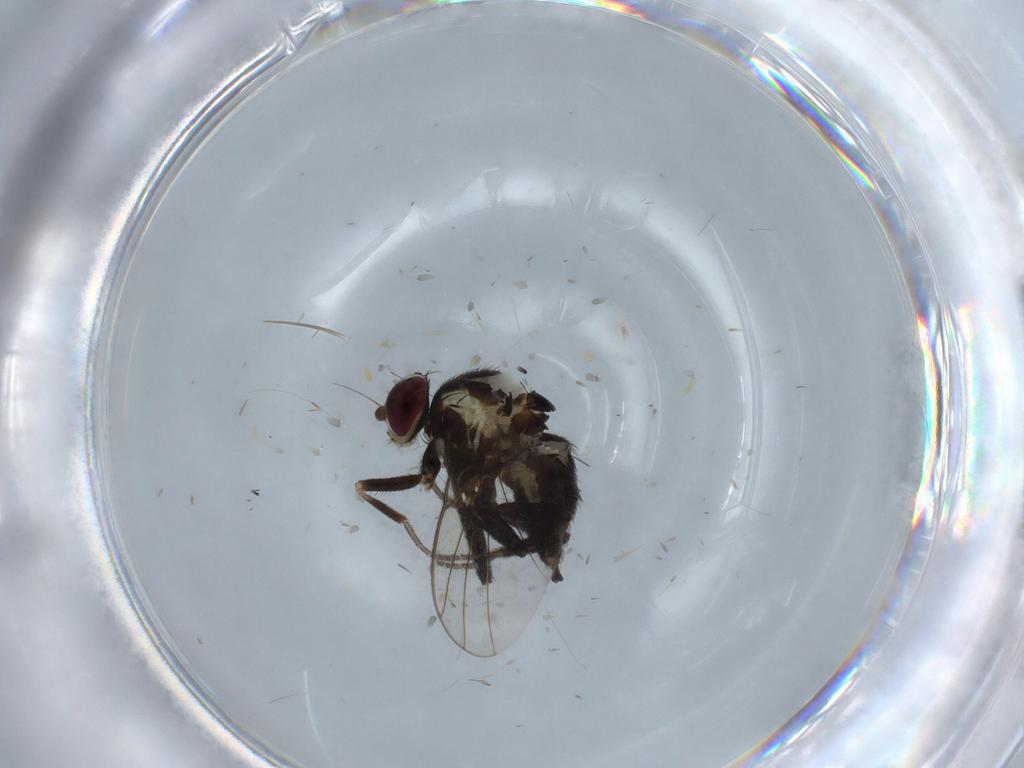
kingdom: Animalia
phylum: Arthropoda
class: Insecta
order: Diptera
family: Agromyzidae
